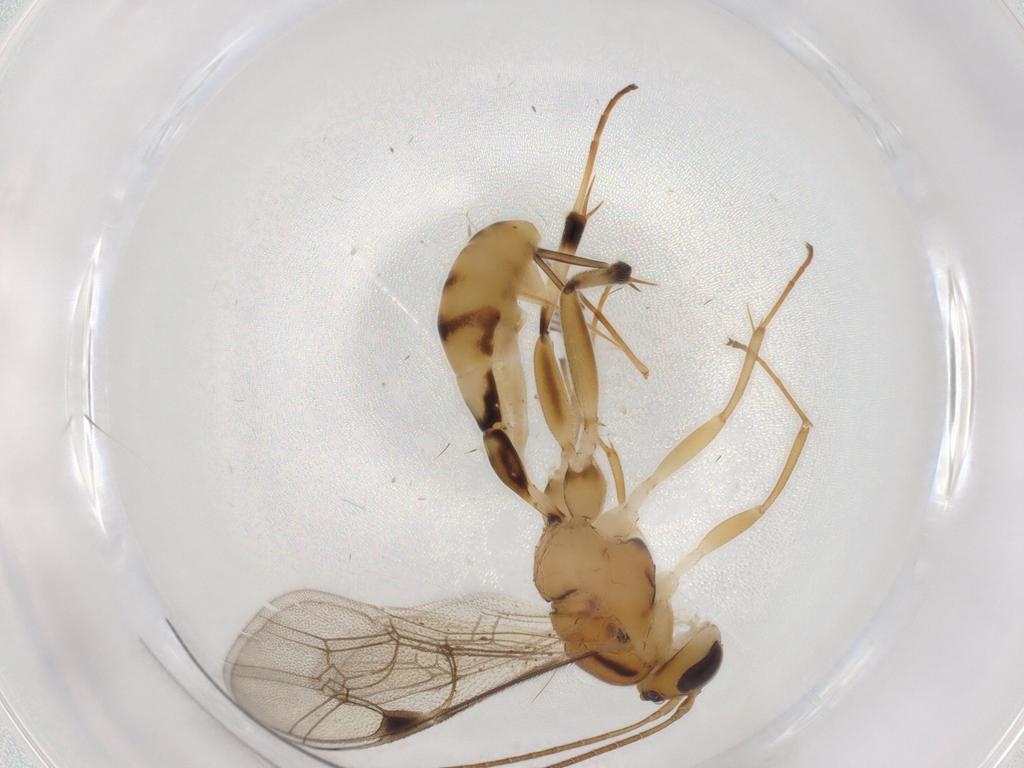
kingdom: Animalia
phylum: Arthropoda
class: Insecta
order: Hymenoptera
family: Ichneumonidae
